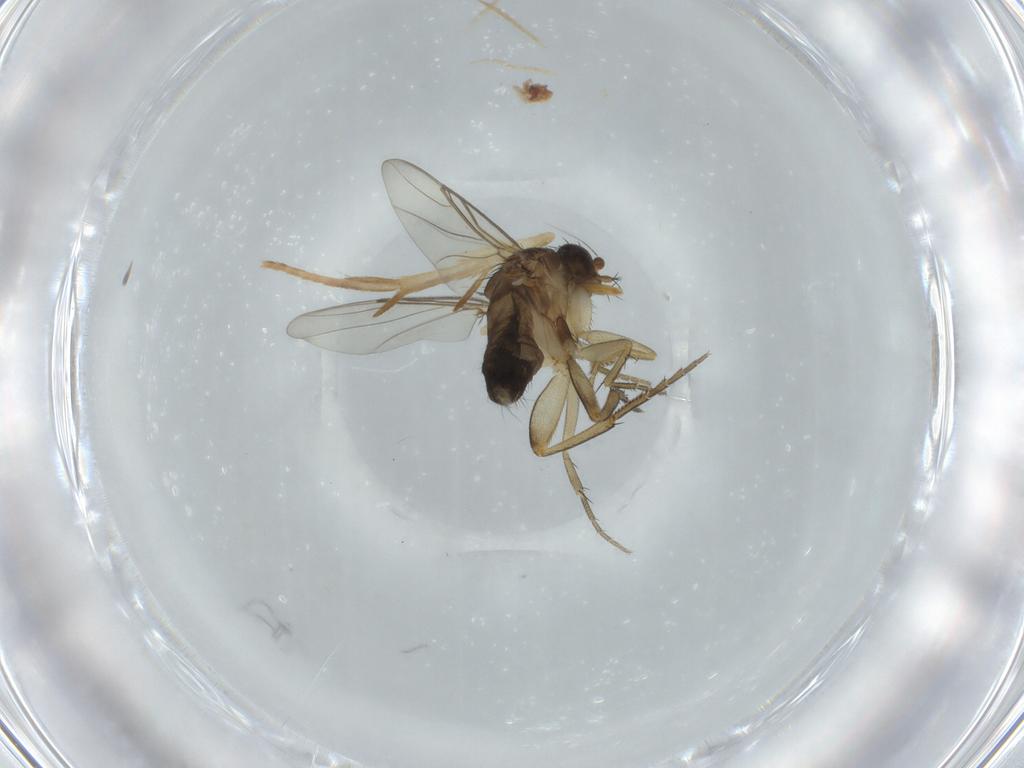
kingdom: Animalia
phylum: Arthropoda
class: Insecta
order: Diptera
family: Phoridae
